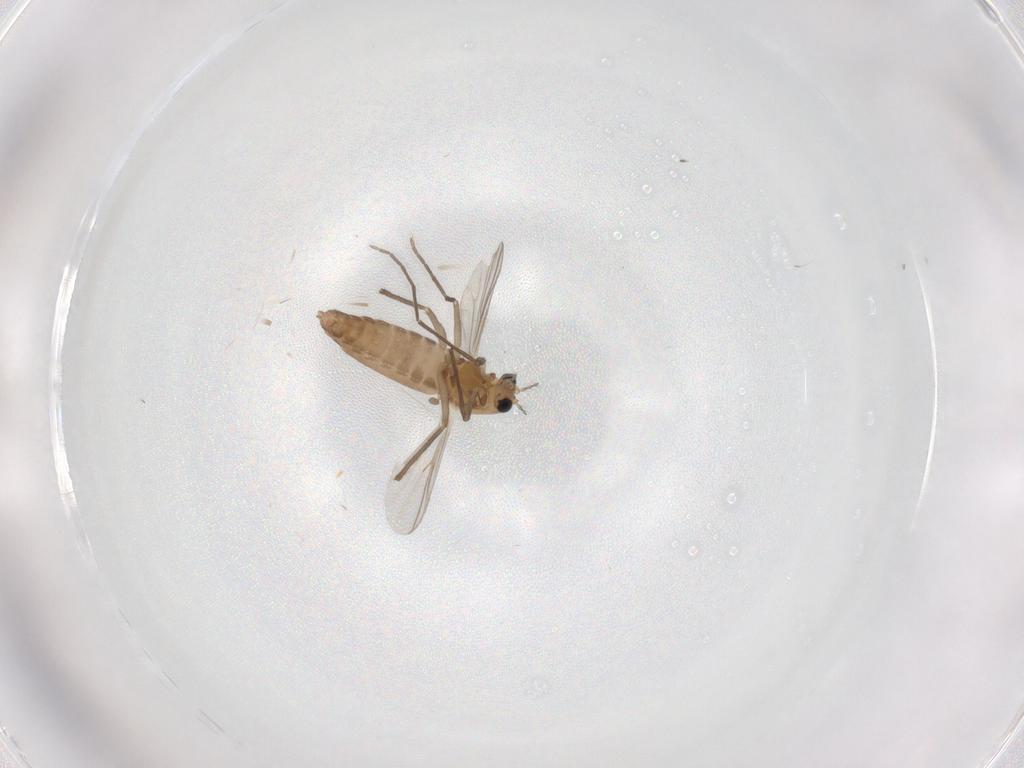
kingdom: Animalia
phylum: Arthropoda
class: Insecta
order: Diptera
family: Chironomidae
